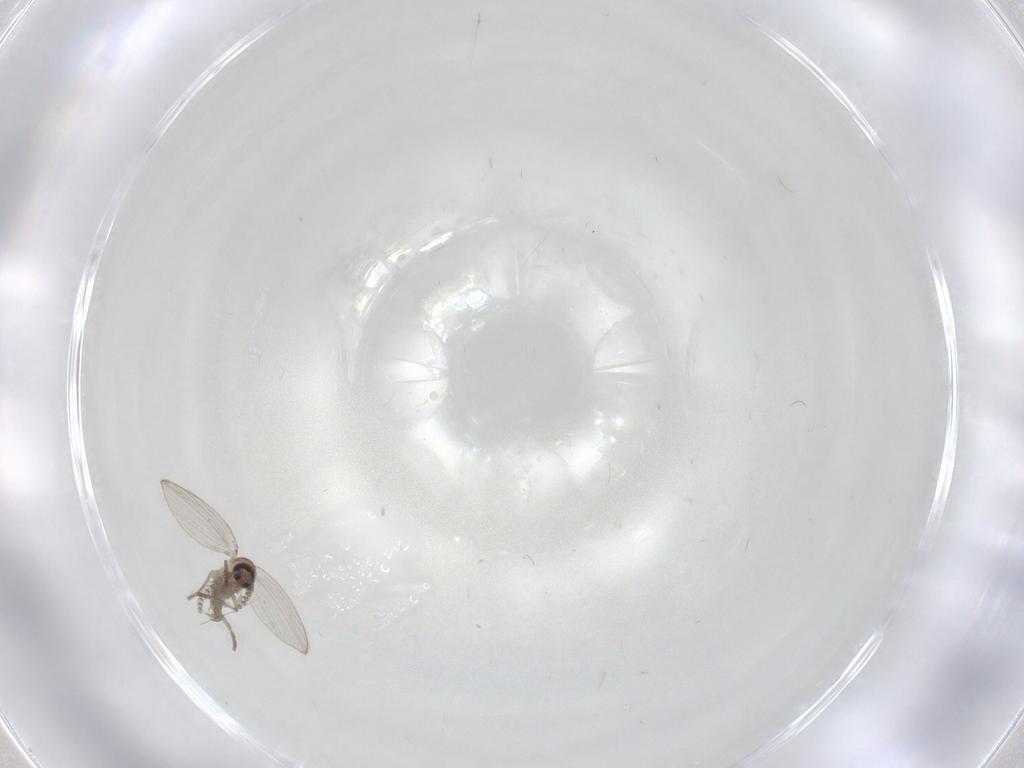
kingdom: Animalia
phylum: Arthropoda
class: Insecta
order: Diptera
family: Psychodidae
